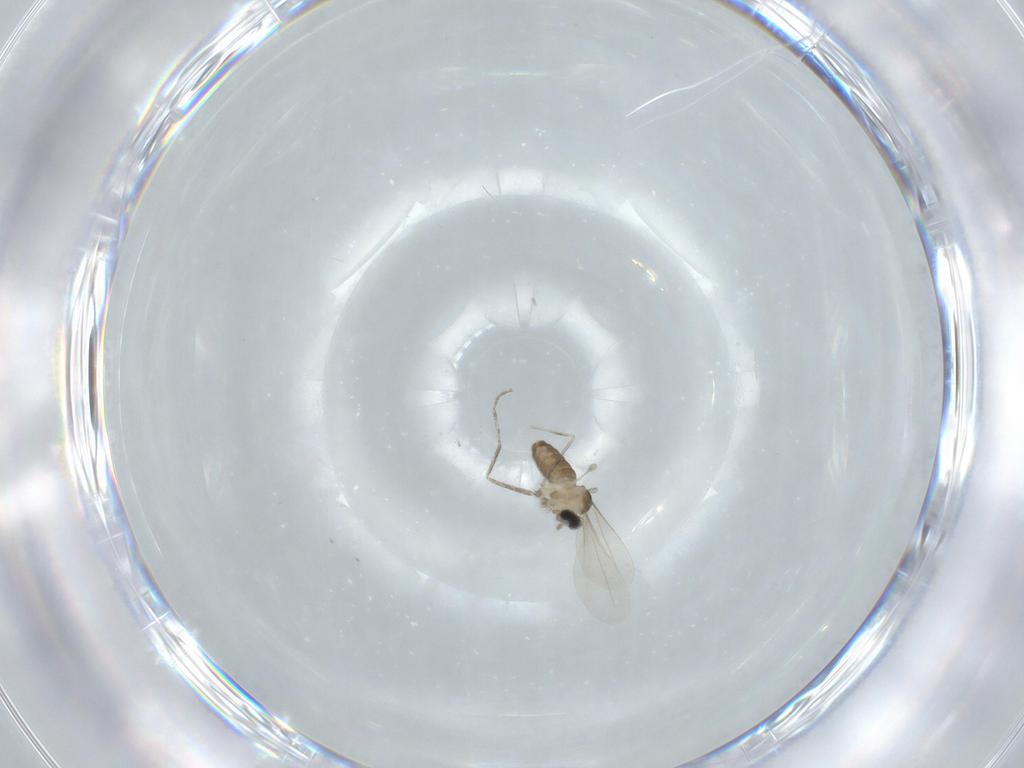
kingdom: Animalia
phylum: Arthropoda
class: Insecta
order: Diptera
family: Cecidomyiidae
